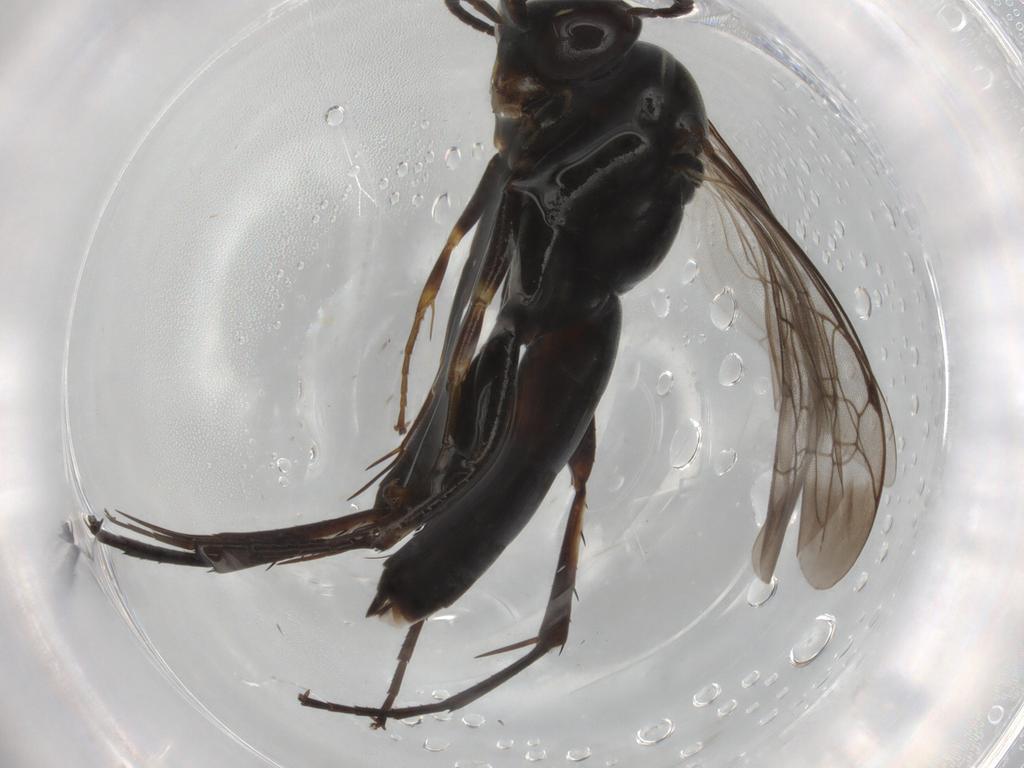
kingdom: Animalia
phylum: Arthropoda
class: Insecta
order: Hymenoptera
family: Pompilidae
